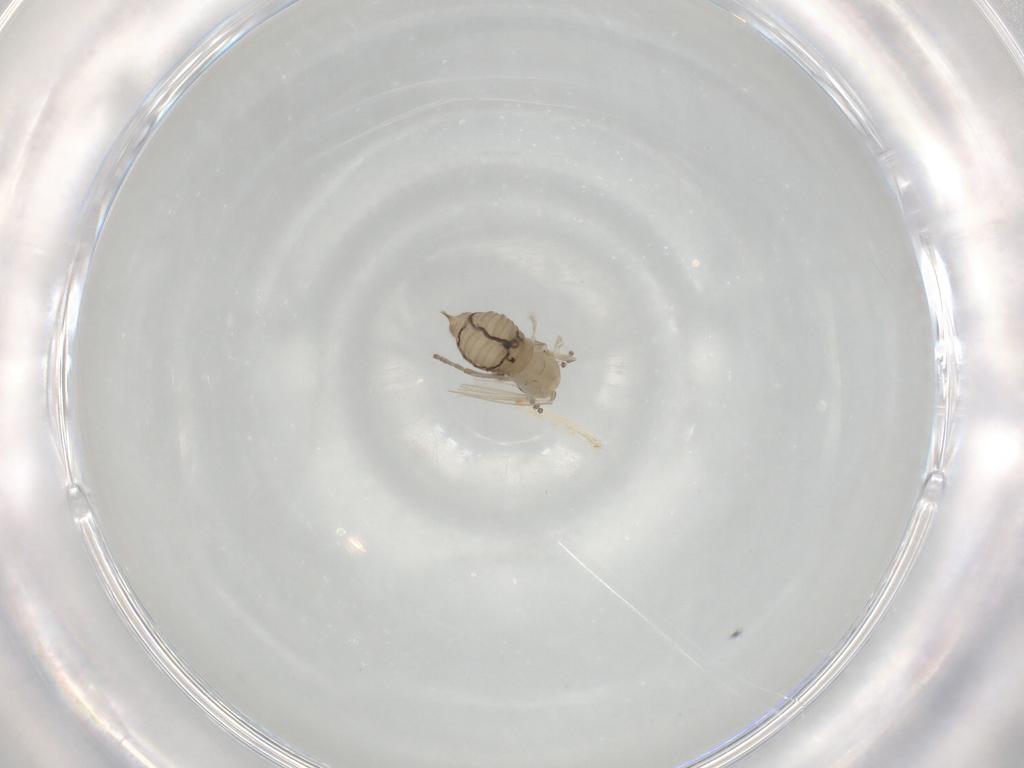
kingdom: Animalia
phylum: Arthropoda
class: Insecta
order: Diptera
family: Psychodidae
